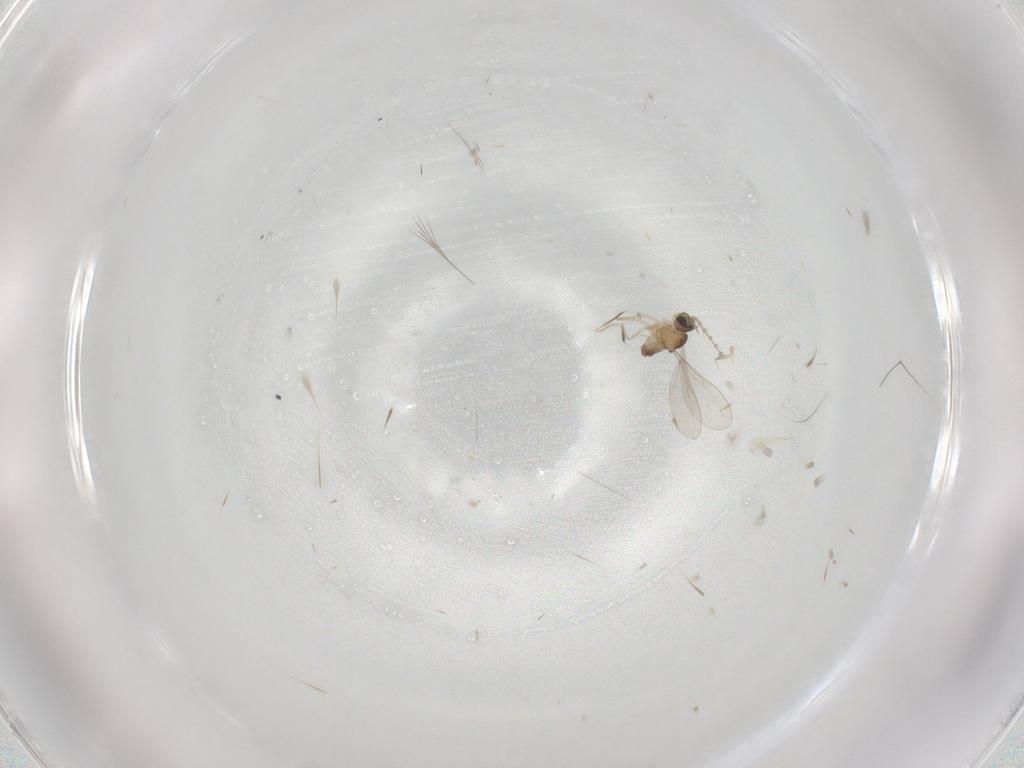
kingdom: Animalia
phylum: Arthropoda
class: Insecta
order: Diptera
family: Cecidomyiidae
